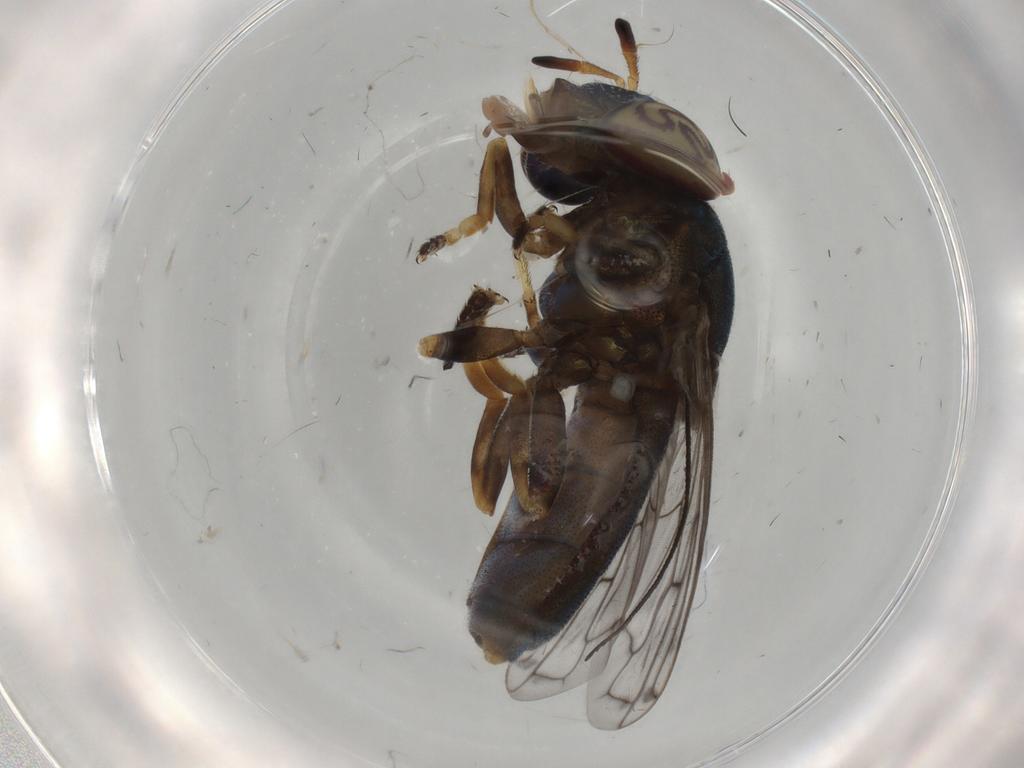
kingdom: Animalia
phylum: Arthropoda
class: Insecta
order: Diptera
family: Syrphidae
